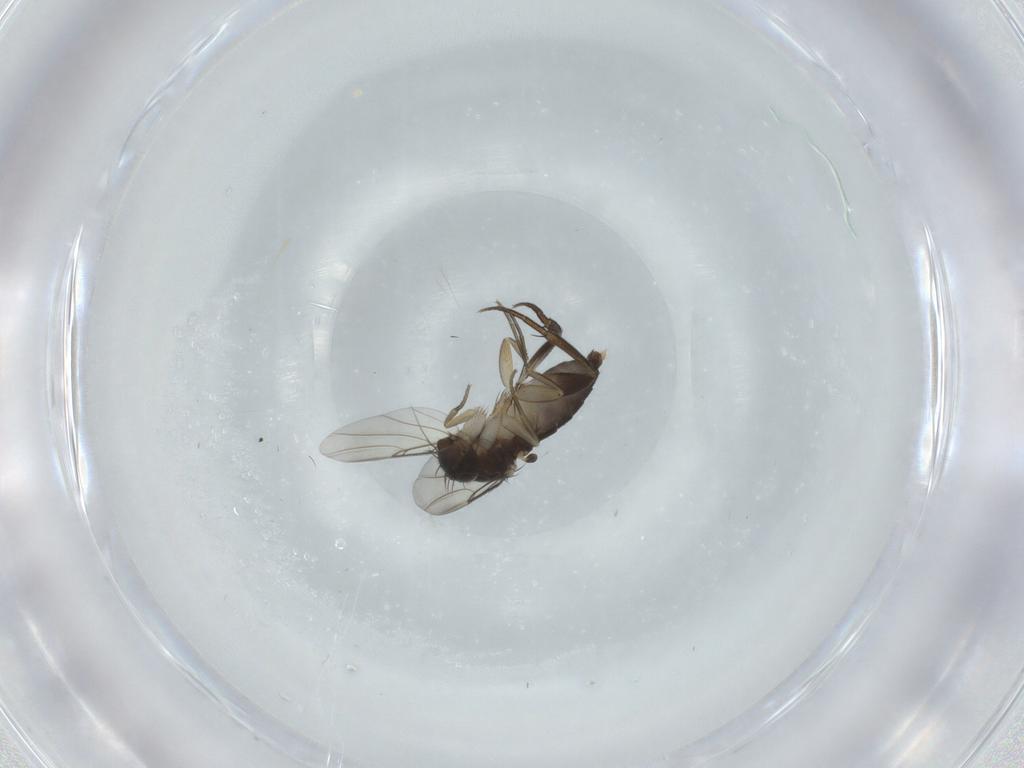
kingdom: Animalia
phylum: Arthropoda
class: Insecta
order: Diptera
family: Phoridae
